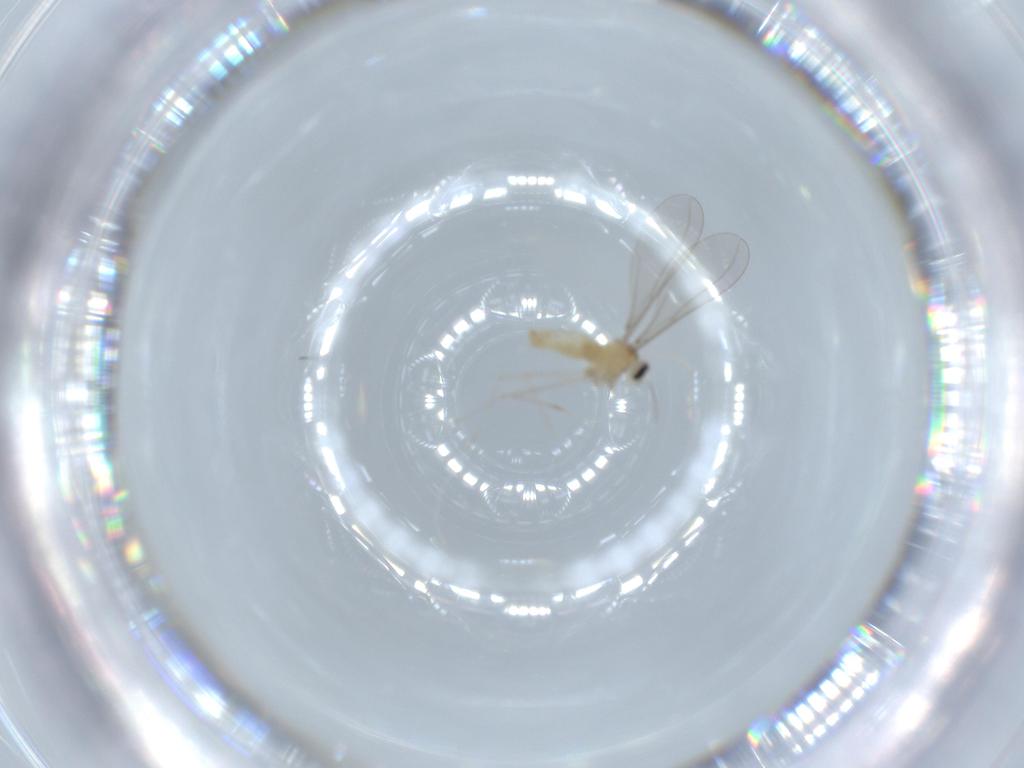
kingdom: Animalia
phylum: Arthropoda
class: Insecta
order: Diptera
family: Cecidomyiidae
